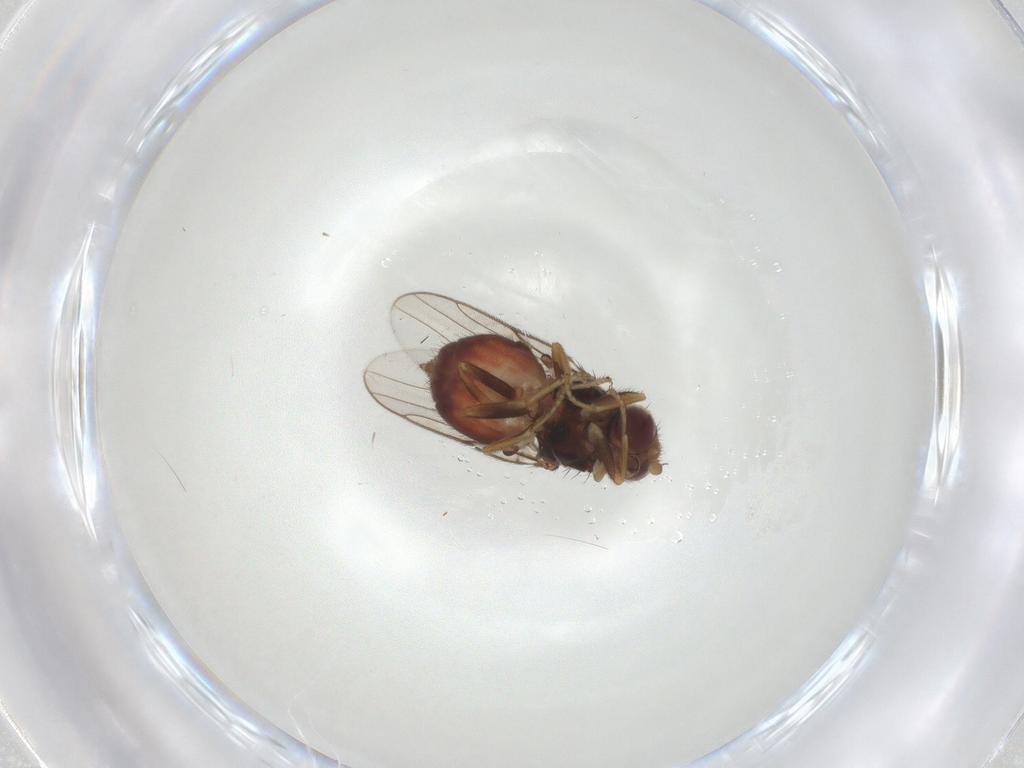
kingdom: Animalia
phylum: Arthropoda
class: Insecta
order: Diptera
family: Chloropidae
